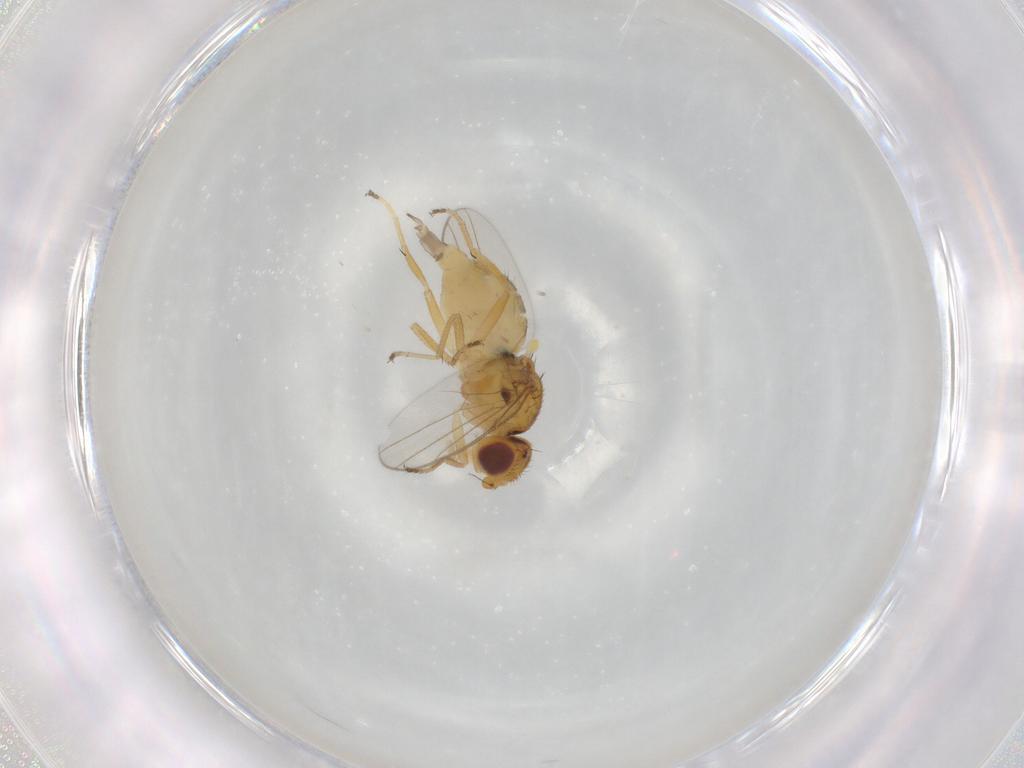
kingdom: Animalia
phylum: Arthropoda
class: Insecta
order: Diptera
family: Chloropidae
